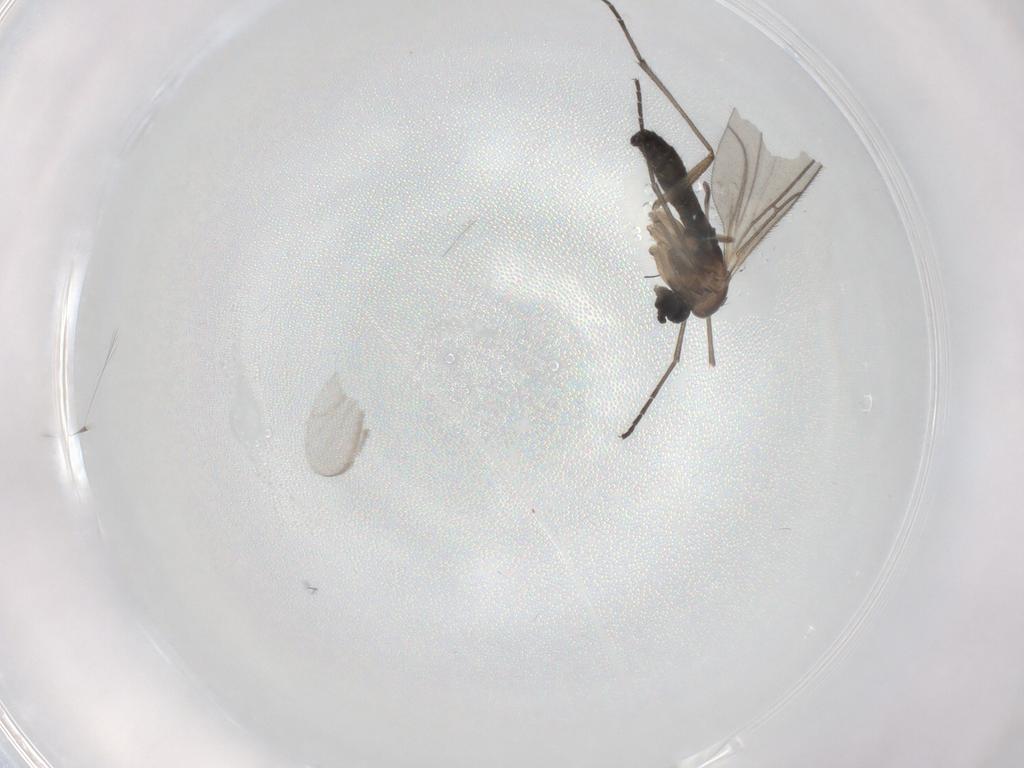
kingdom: Animalia
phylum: Arthropoda
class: Insecta
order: Diptera
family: Sciaridae
